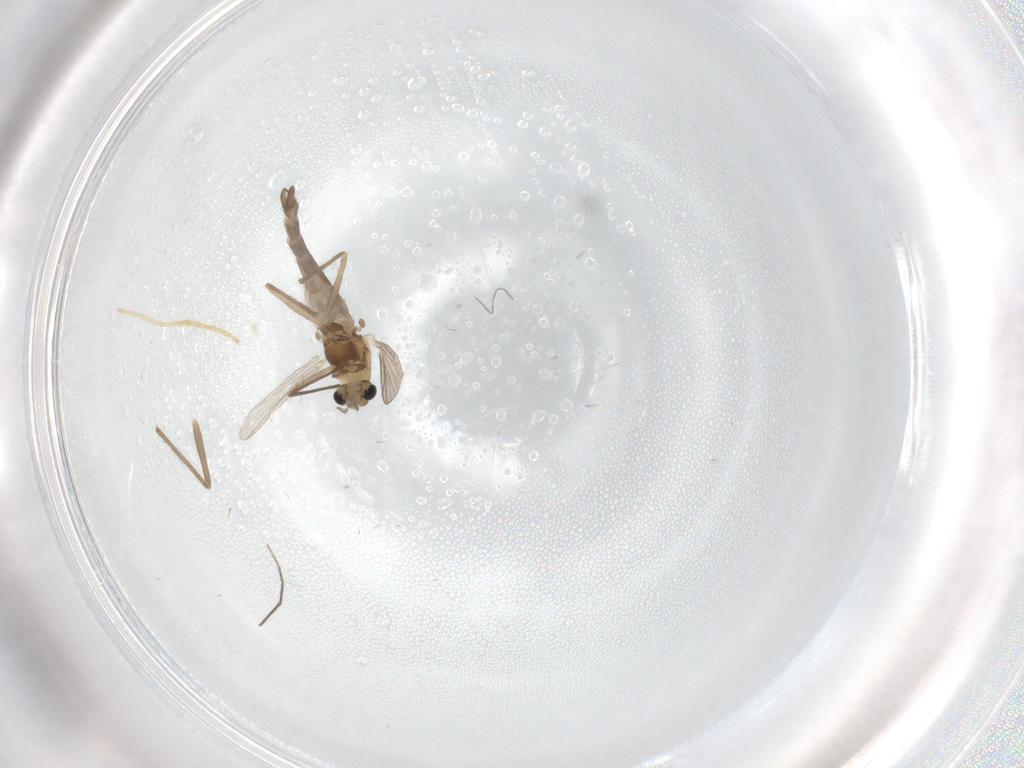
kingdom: Animalia
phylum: Arthropoda
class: Insecta
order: Diptera
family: Chironomidae
